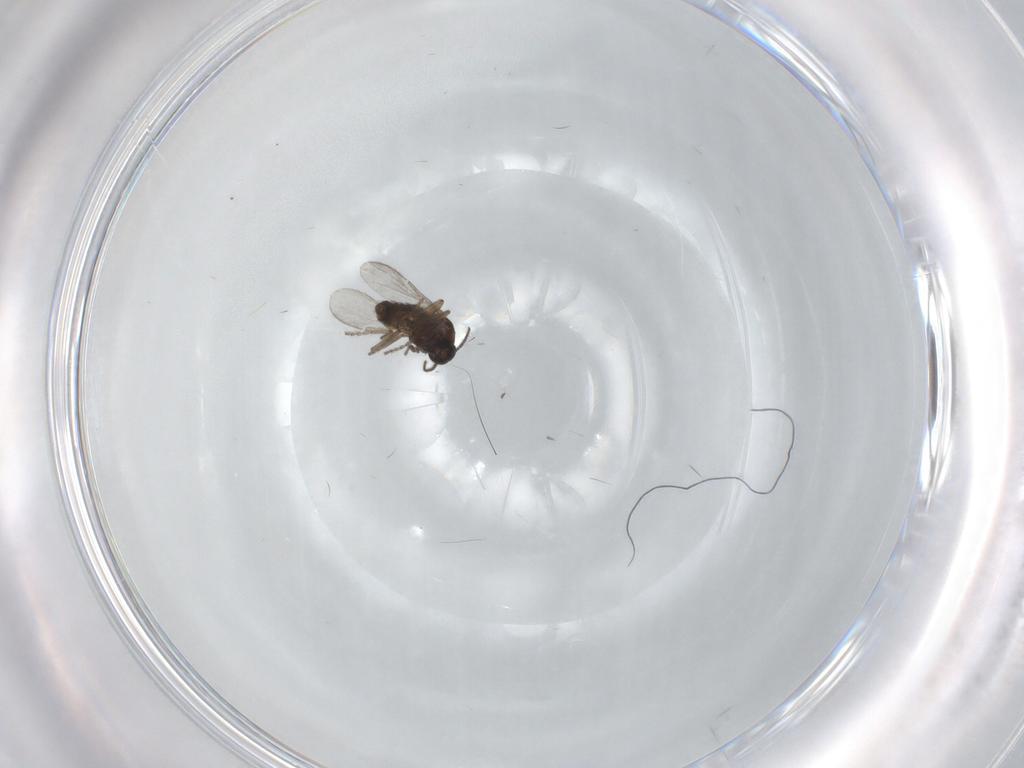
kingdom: Animalia
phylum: Arthropoda
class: Insecta
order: Diptera
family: Ceratopogonidae
